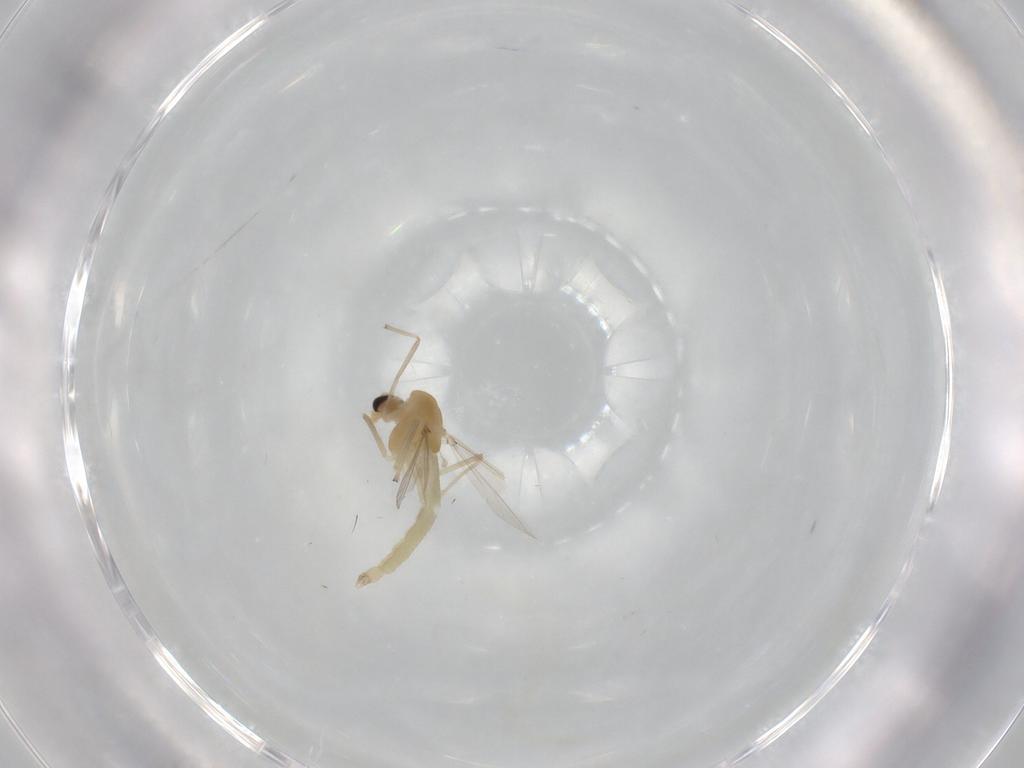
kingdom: Animalia
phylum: Arthropoda
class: Insecta
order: Diptera
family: Chironomidae
